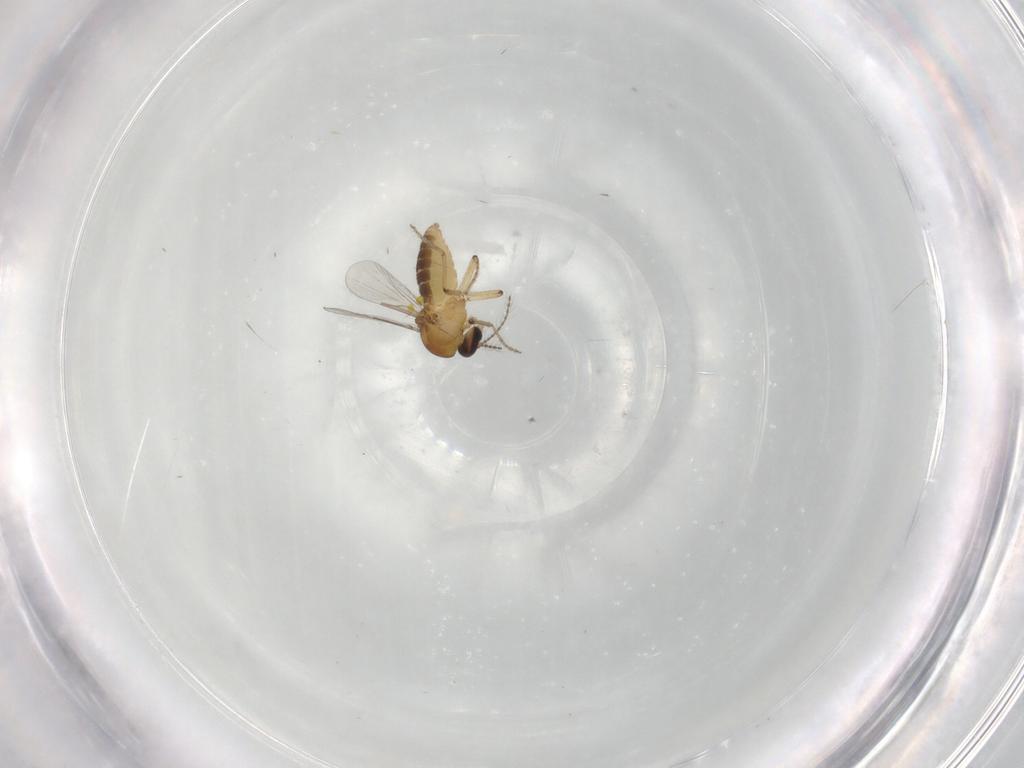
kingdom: Animalia
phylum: Arthropoda
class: Insecta
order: Diptera
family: Ceratopogonidae
